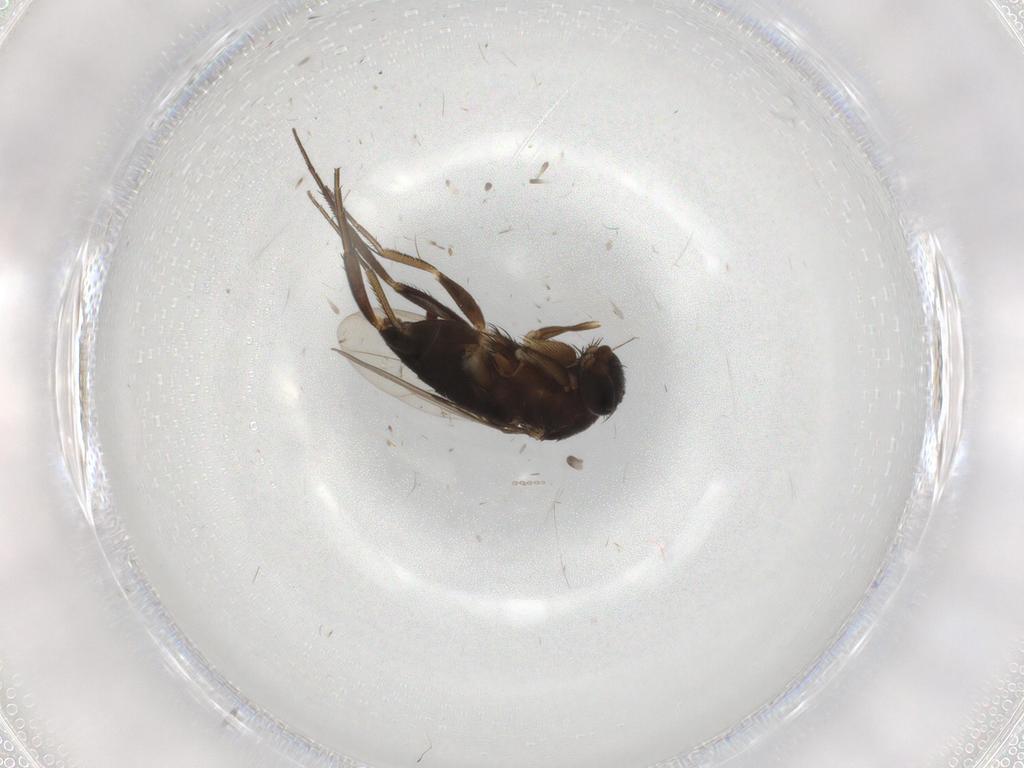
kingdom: Animalia
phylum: Arthropoda
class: Insecta
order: Diptera
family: Phoridae
